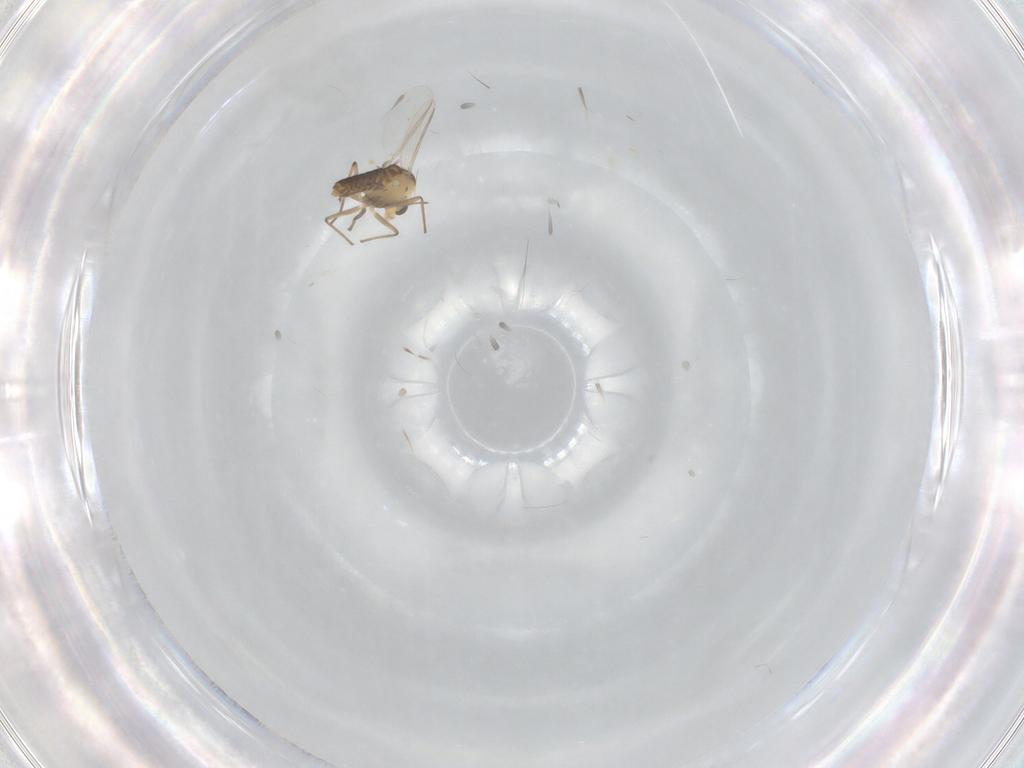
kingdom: Animalia
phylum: Arthropoda
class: Insecta
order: Diptera
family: Chironomidae
